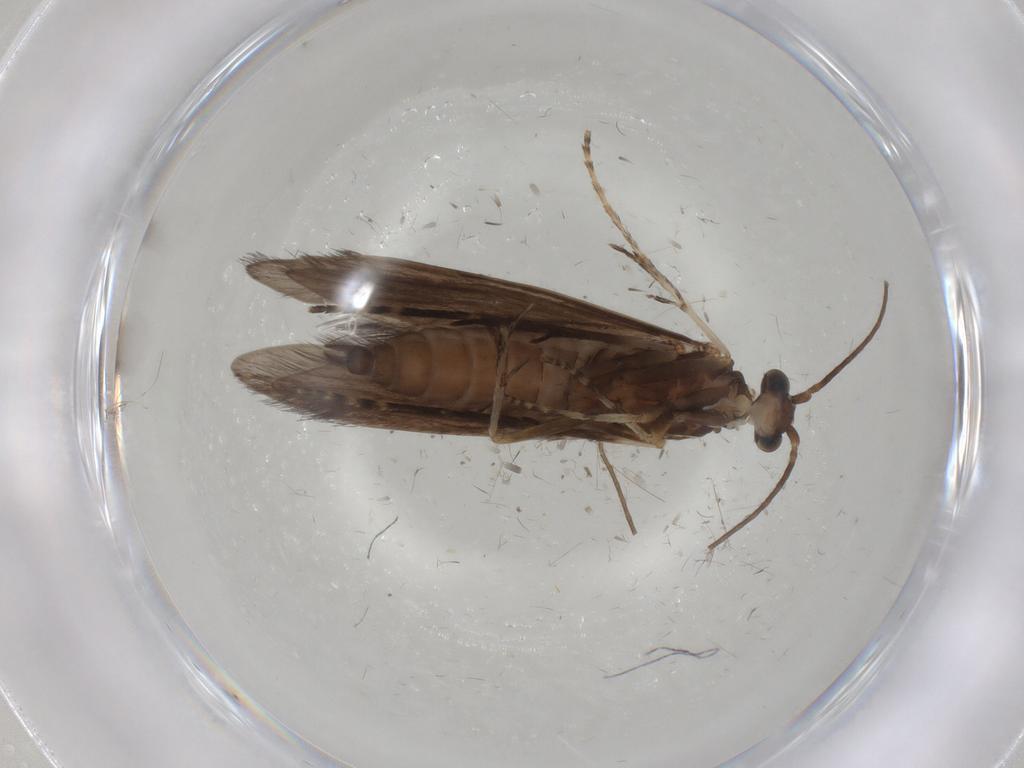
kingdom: Animalia
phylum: Arthropoda
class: Insecta
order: Trichoptera
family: Xiphocentronidae
